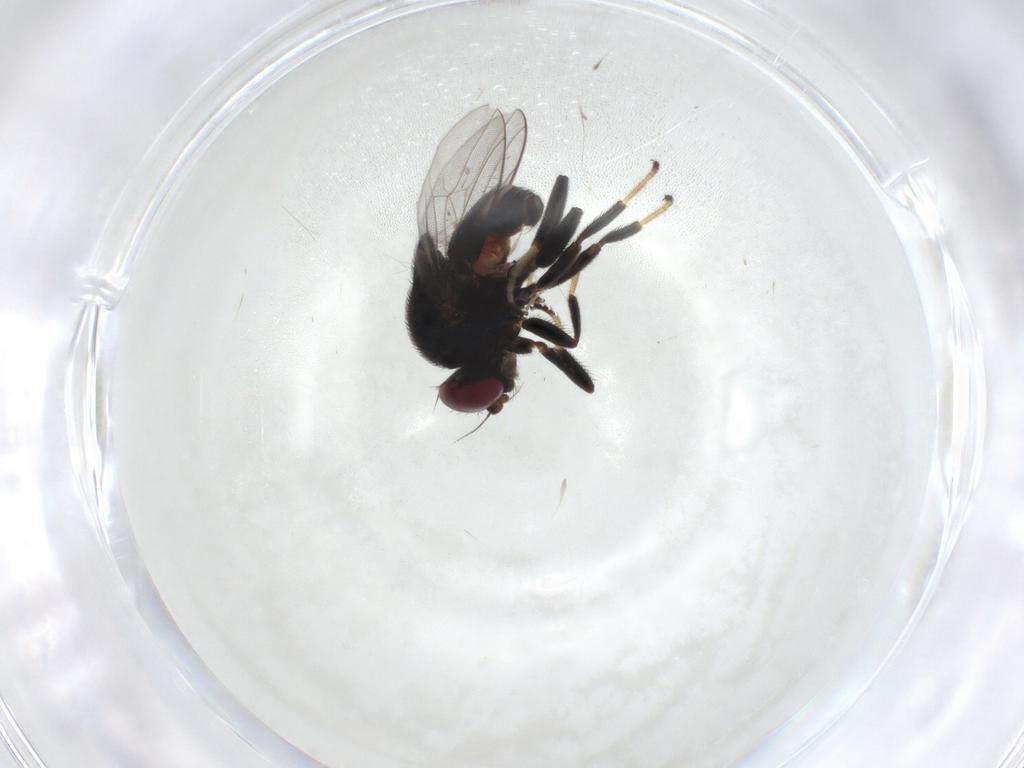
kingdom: Animalia
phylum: Arthropoda
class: Insecta
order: Diptera
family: Chloropidae
